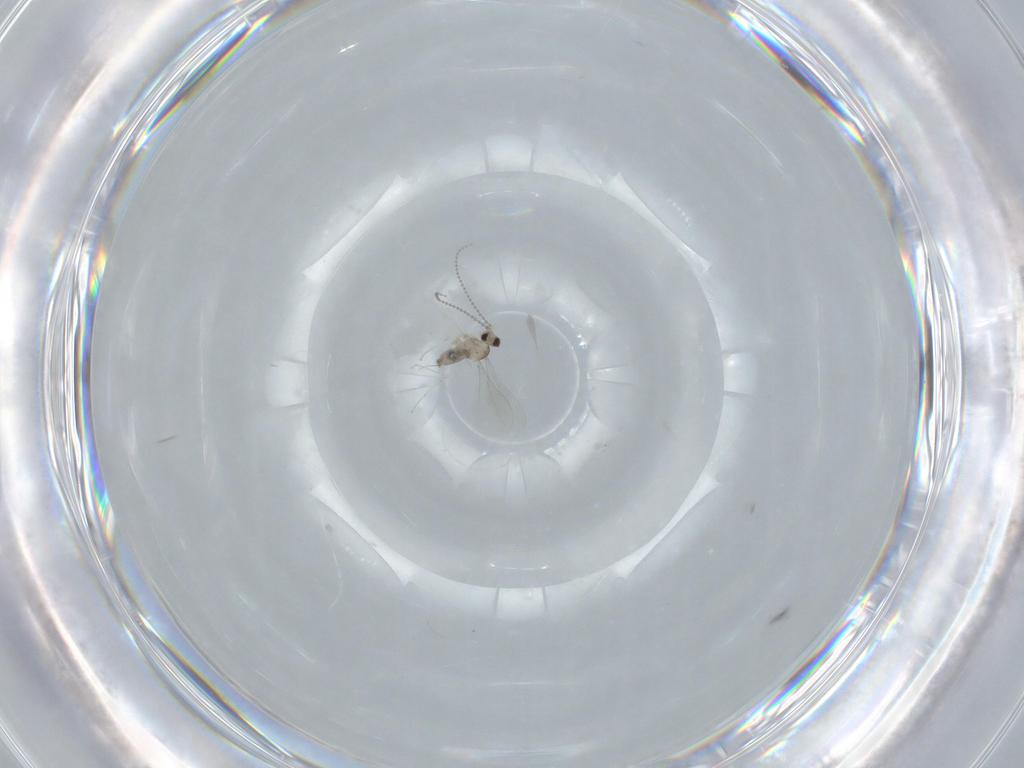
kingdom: Animalia
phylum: Arthropoda
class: Insecta
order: Diptera
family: Cecidomyiidae
